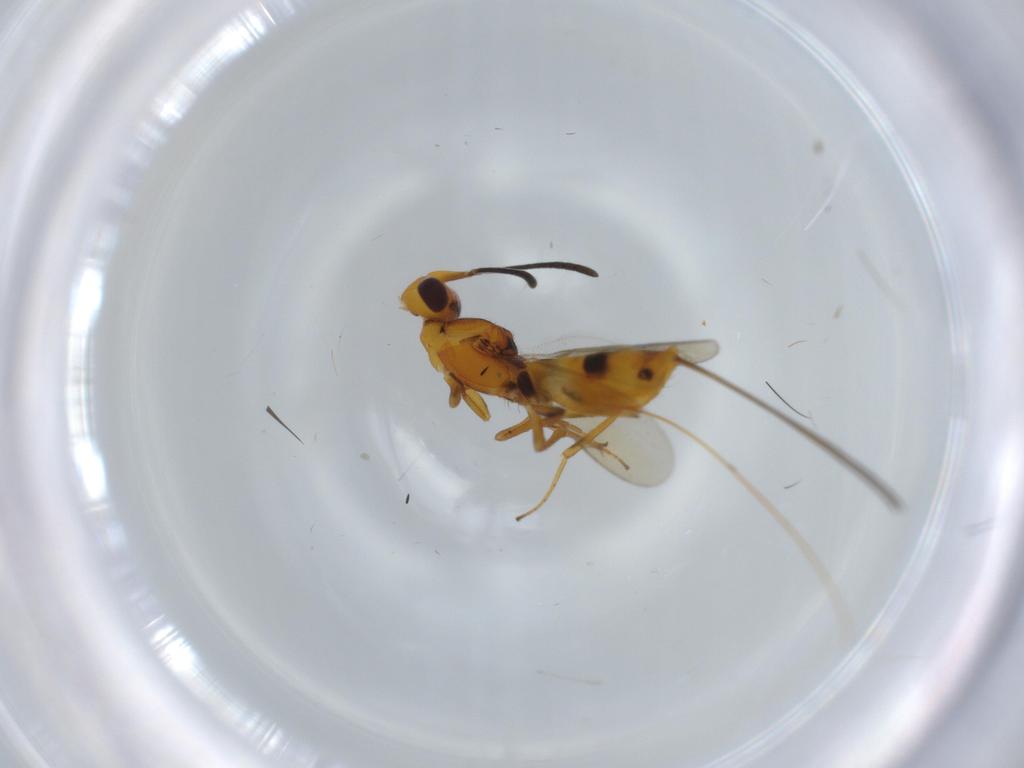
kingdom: Animalia
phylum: Arthropoda
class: Insecta
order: Hymenoptera
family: Eupelmidae
